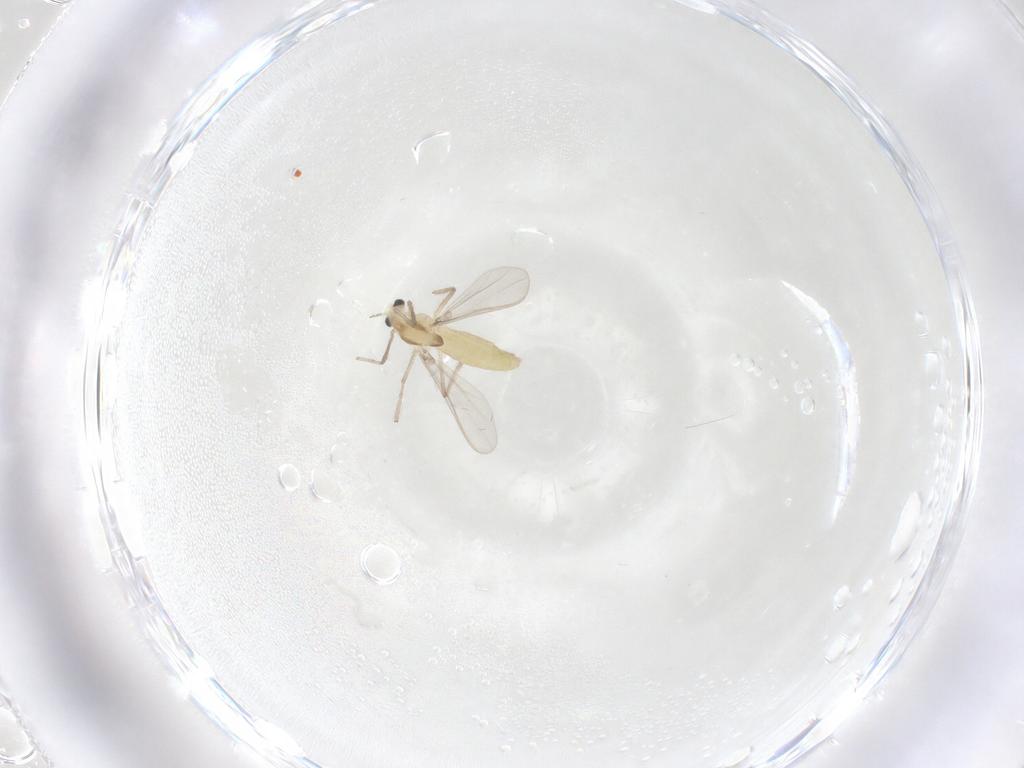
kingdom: Animalia
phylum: Arthropoda
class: Insecta
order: Diptera
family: Chironomidae
